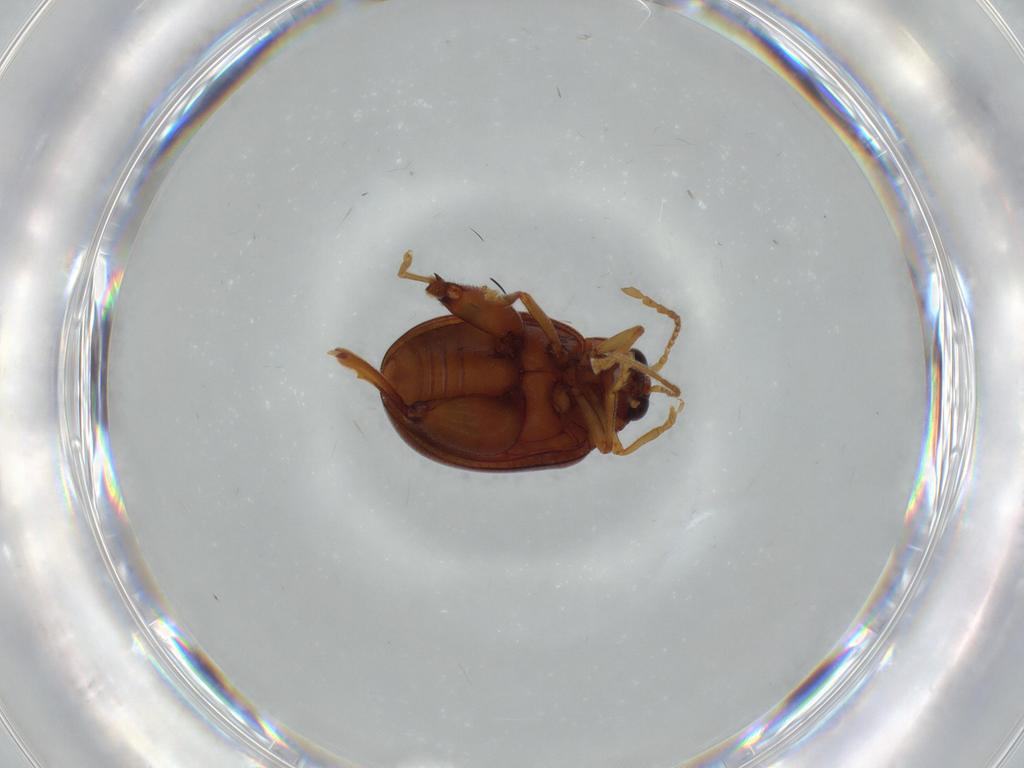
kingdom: Animalia
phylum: Arthropoda
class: Insecta
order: Coleoptera
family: Chrysomelidae
